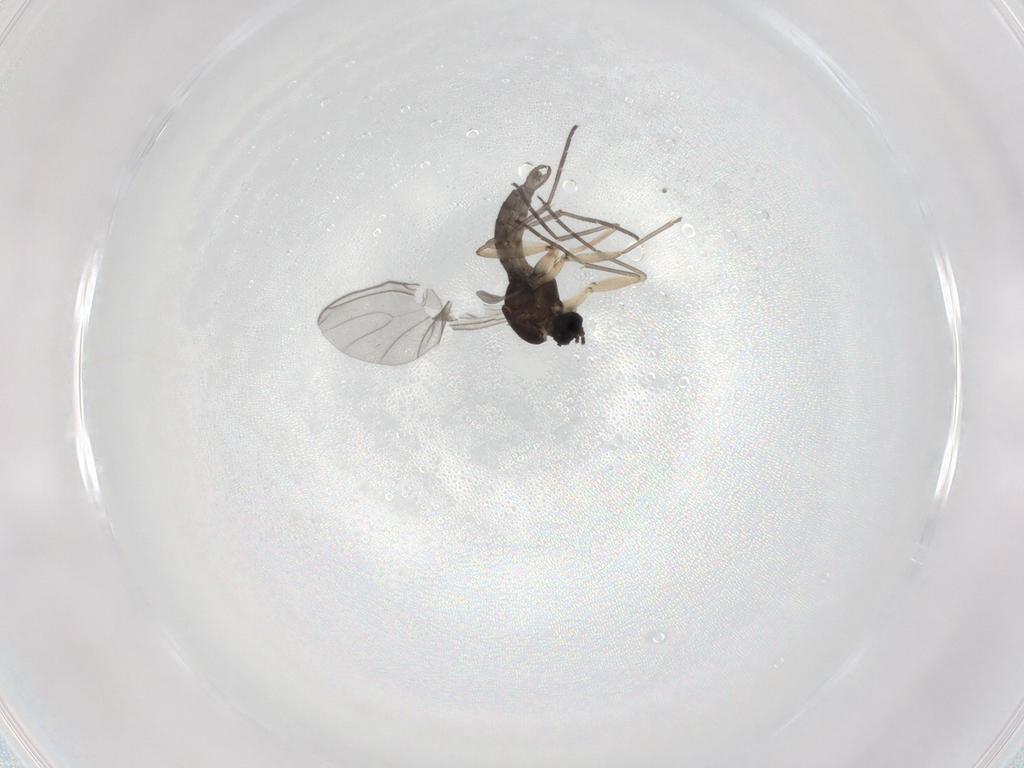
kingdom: Animalia
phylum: Arthropoda
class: Insecta
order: Diptera
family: Sciaridae
